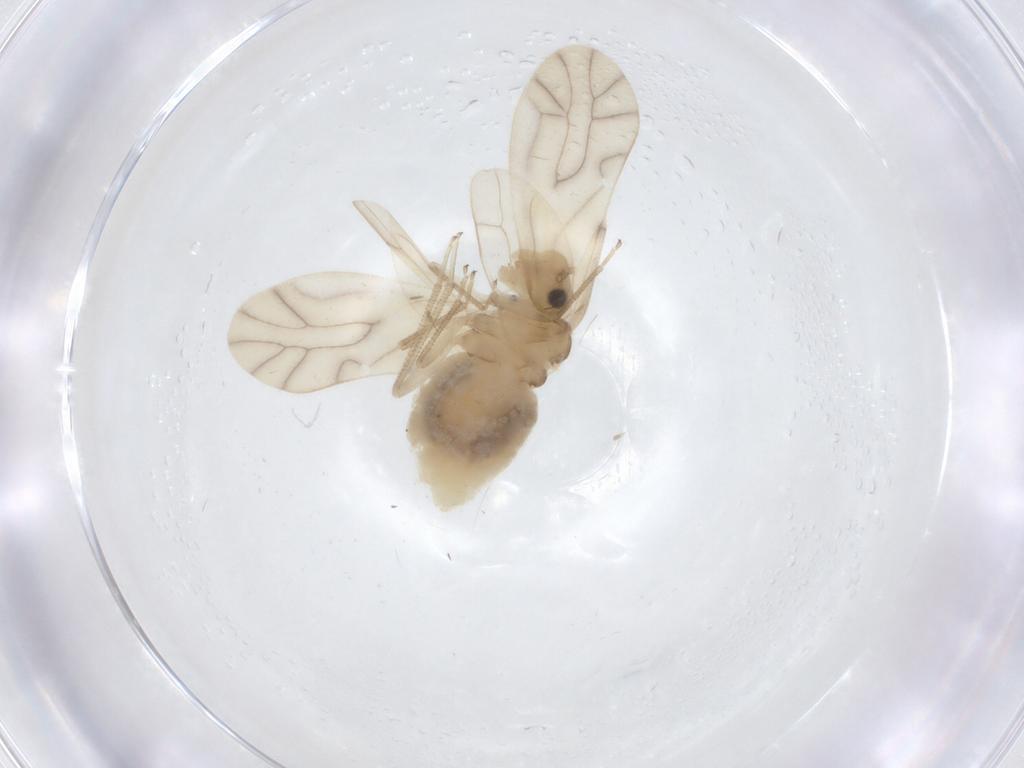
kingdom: Animalia
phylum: Arthropoda
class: Insecta
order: Psocodea
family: Caeciliusidae
